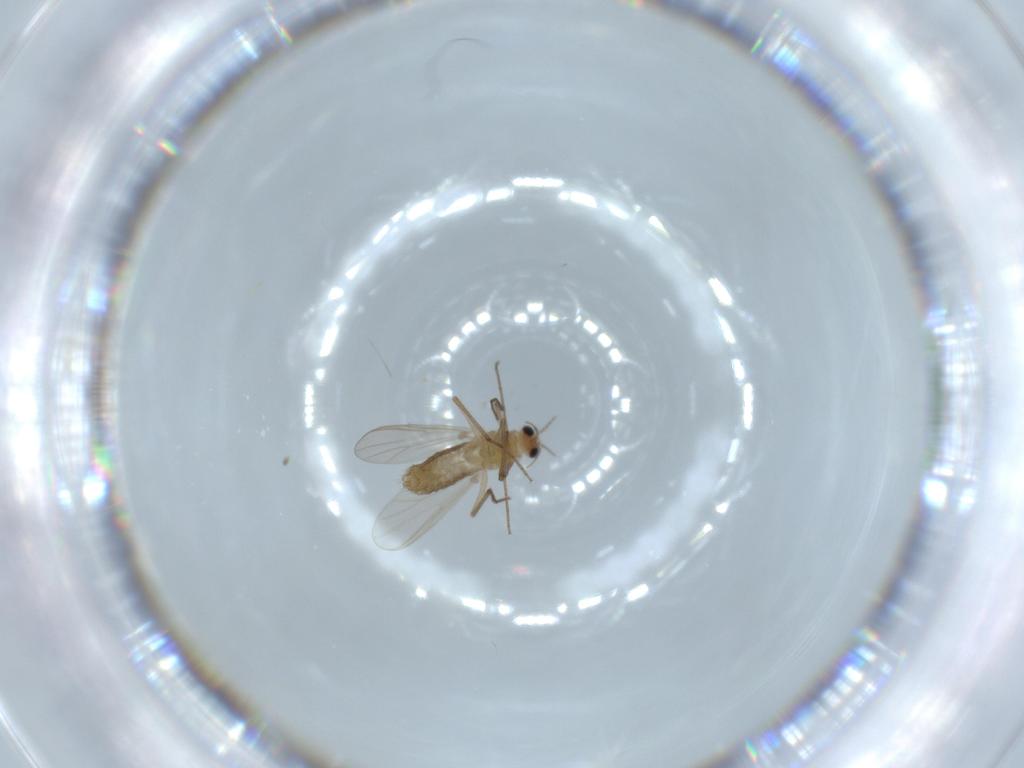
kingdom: Animalia
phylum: Arthropoda
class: Insecta
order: Diptera
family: Chironomidae
